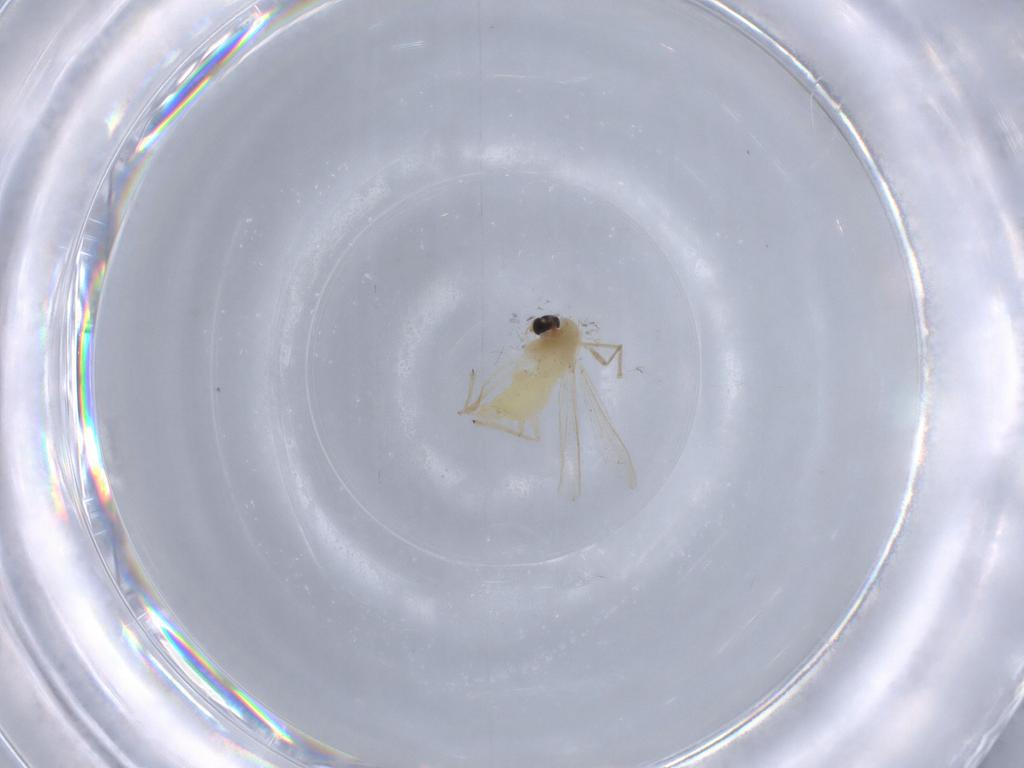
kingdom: Animalia
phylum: Arthropoda
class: Insecta
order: Diptera
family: Chironomidae
